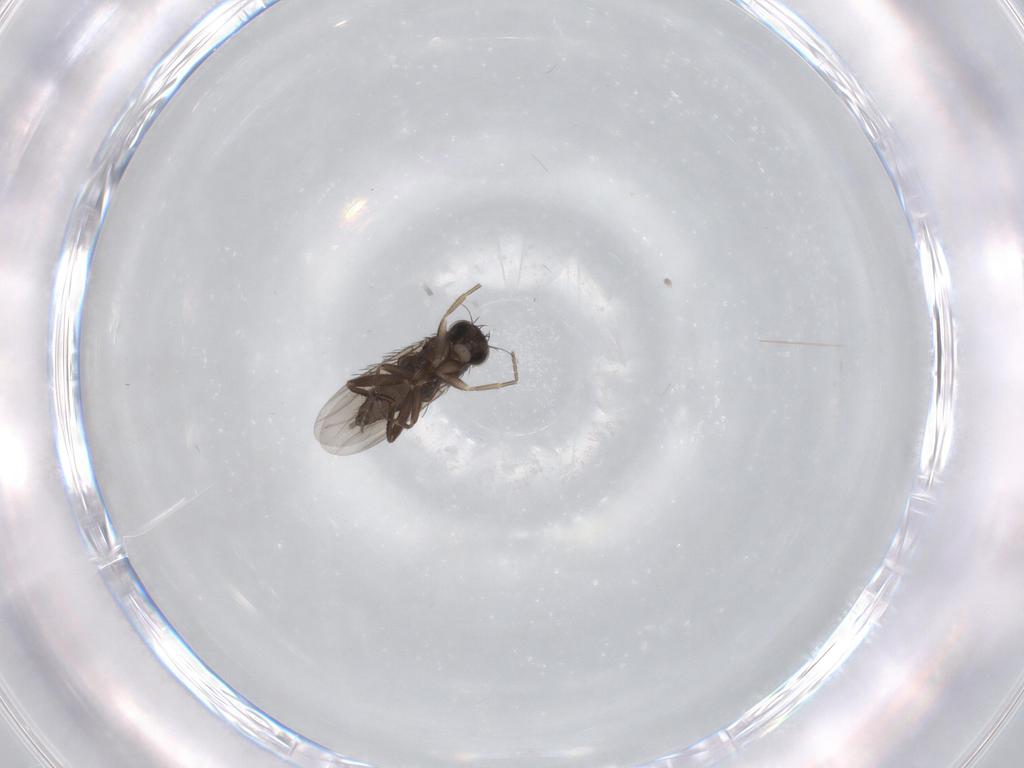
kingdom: Animalia
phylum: Arthropoda
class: Insecta
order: Diptera
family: Phoridae
